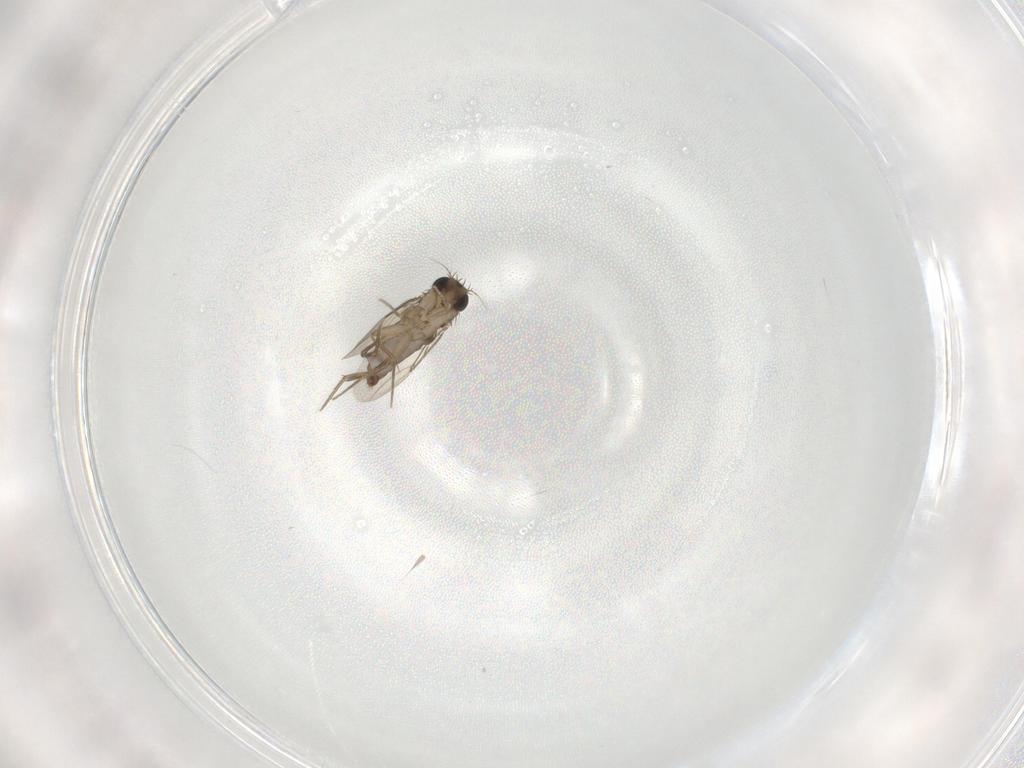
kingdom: Animalia
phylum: Arthropoda
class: Insecta
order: Diptera
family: Phoridae
